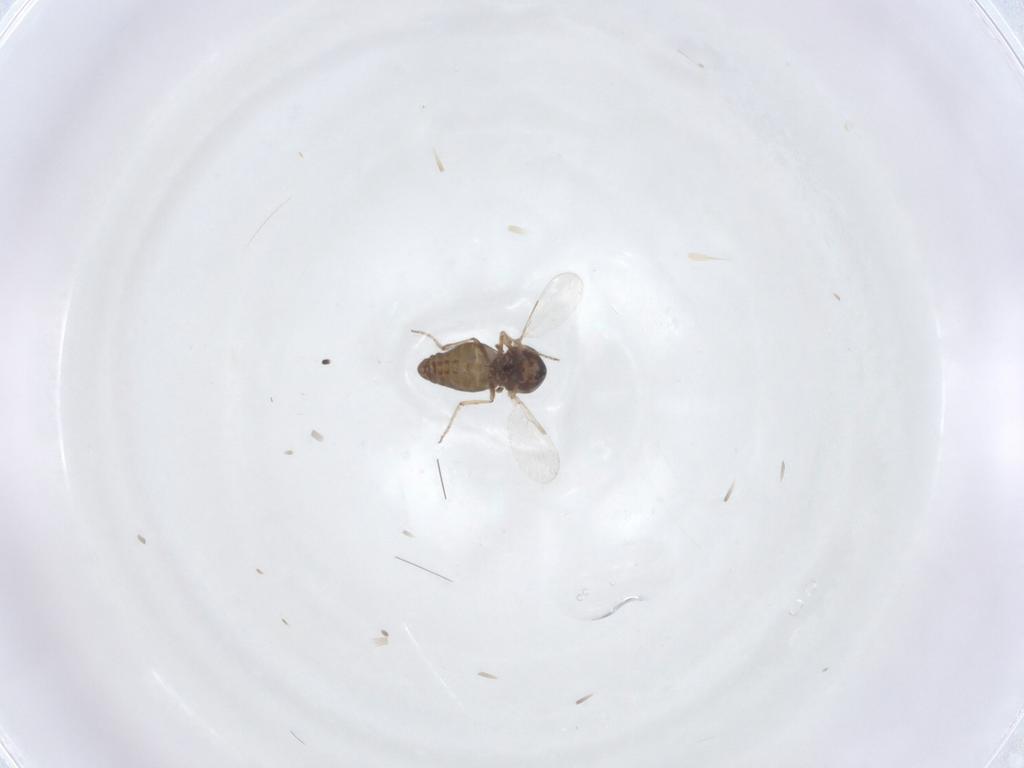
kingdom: Animalia
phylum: Arthropoda
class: Insecta
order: Diptera
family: Ceratopogonidae
